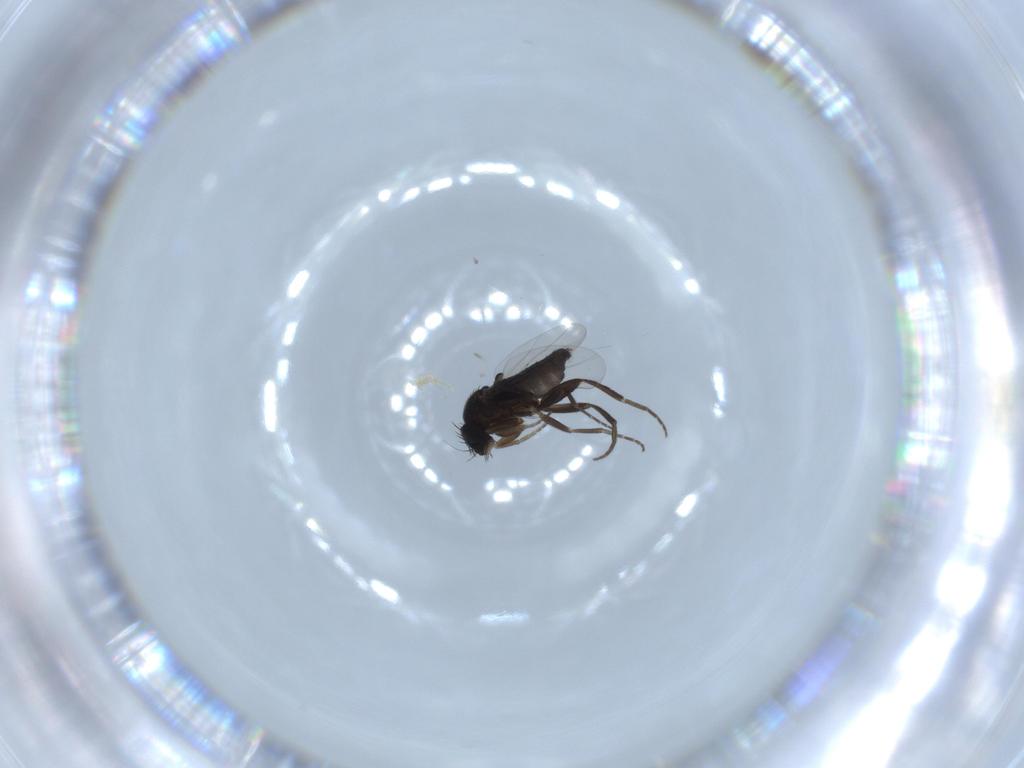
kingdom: Animalia
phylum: Arthropoda
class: Insecta
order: Diptera
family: Phoridae
